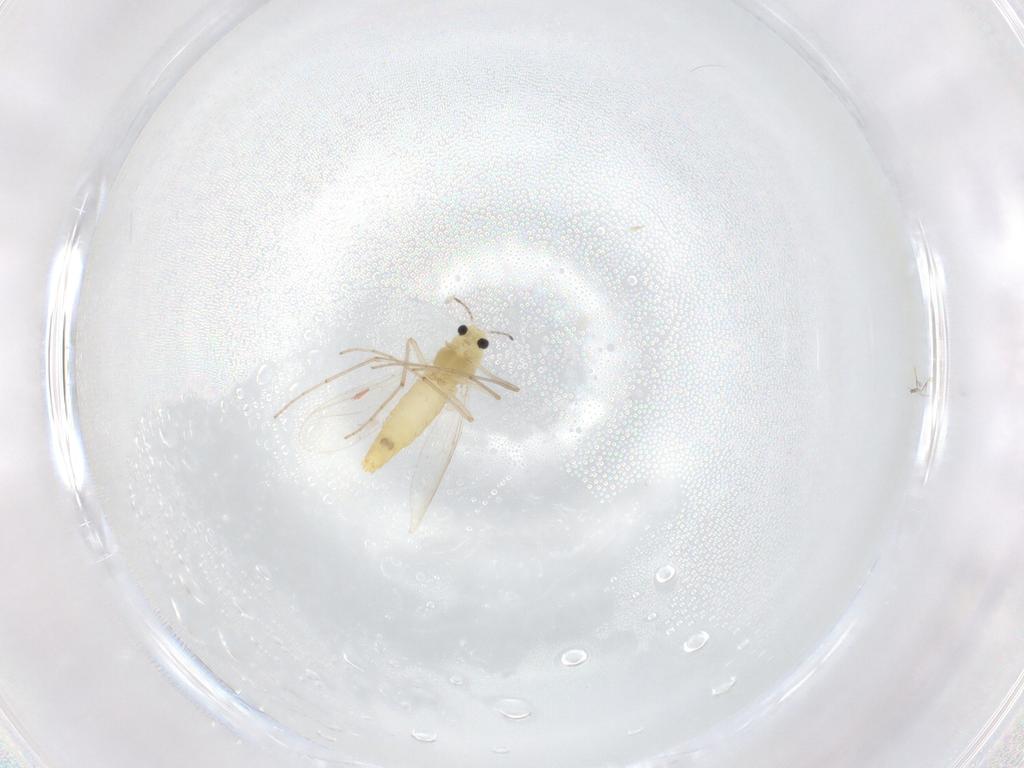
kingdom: Animalia
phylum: Arthropoda
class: Insecta
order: Diptera
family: Chironomidae
